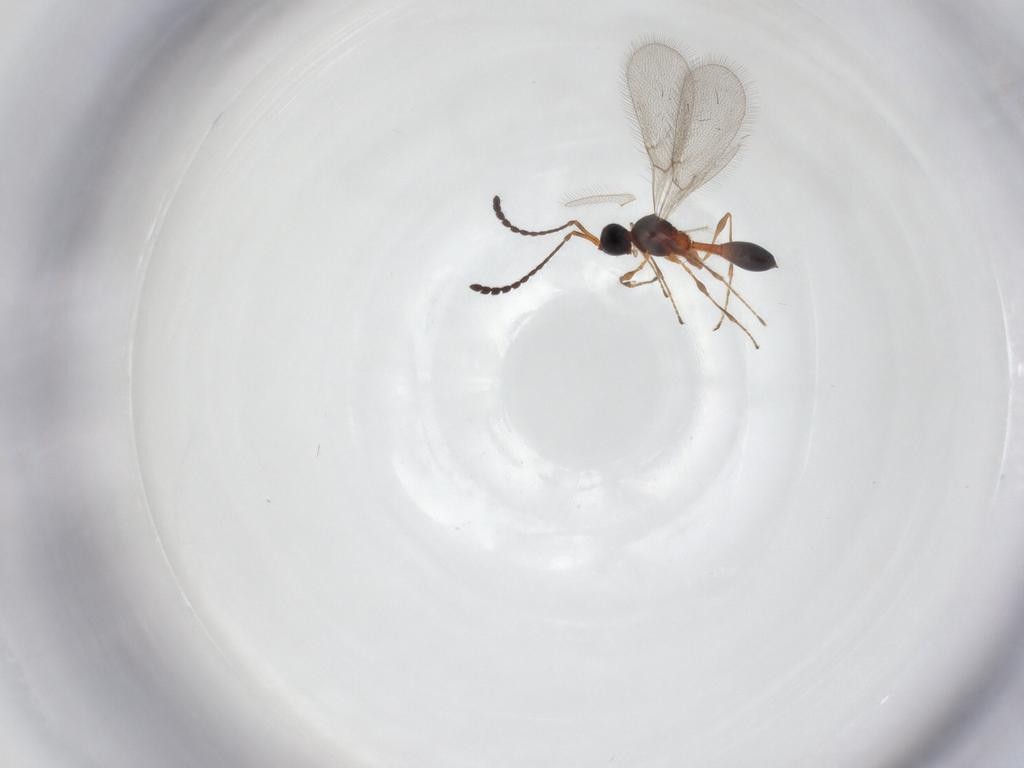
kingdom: Animalia
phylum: Arthropoda
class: Insecta
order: Hymenoptera
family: Diapriidae
